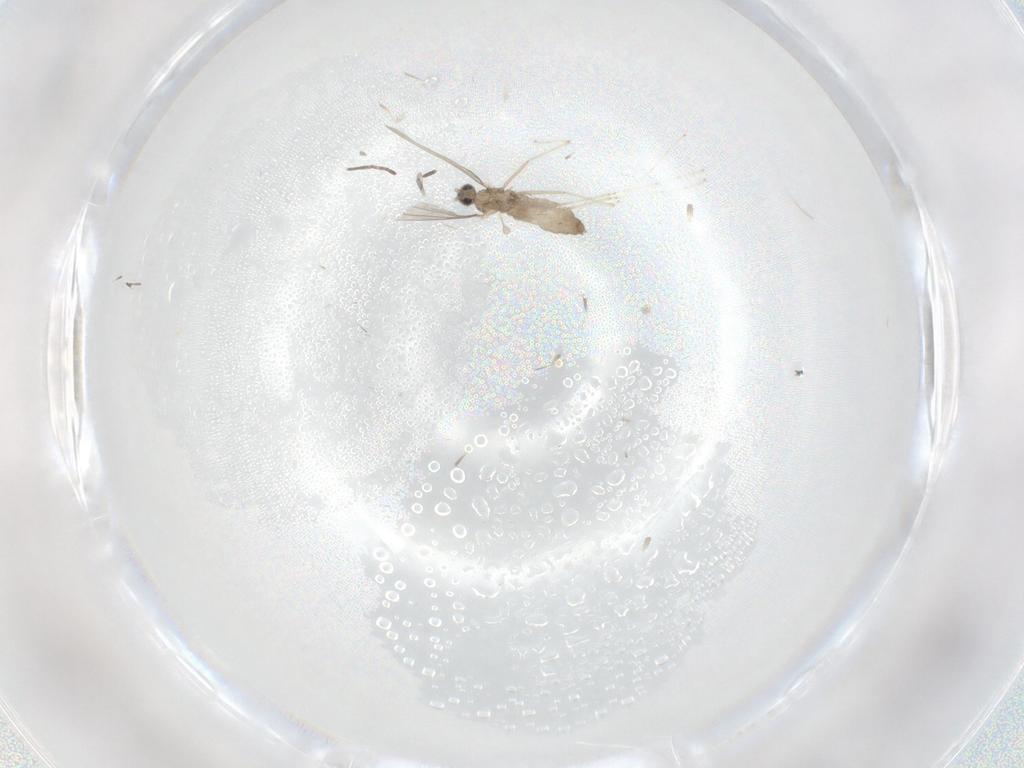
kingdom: Animalia
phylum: Arthropoda
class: Insecta
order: Diptera
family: Cecidomyiidae
